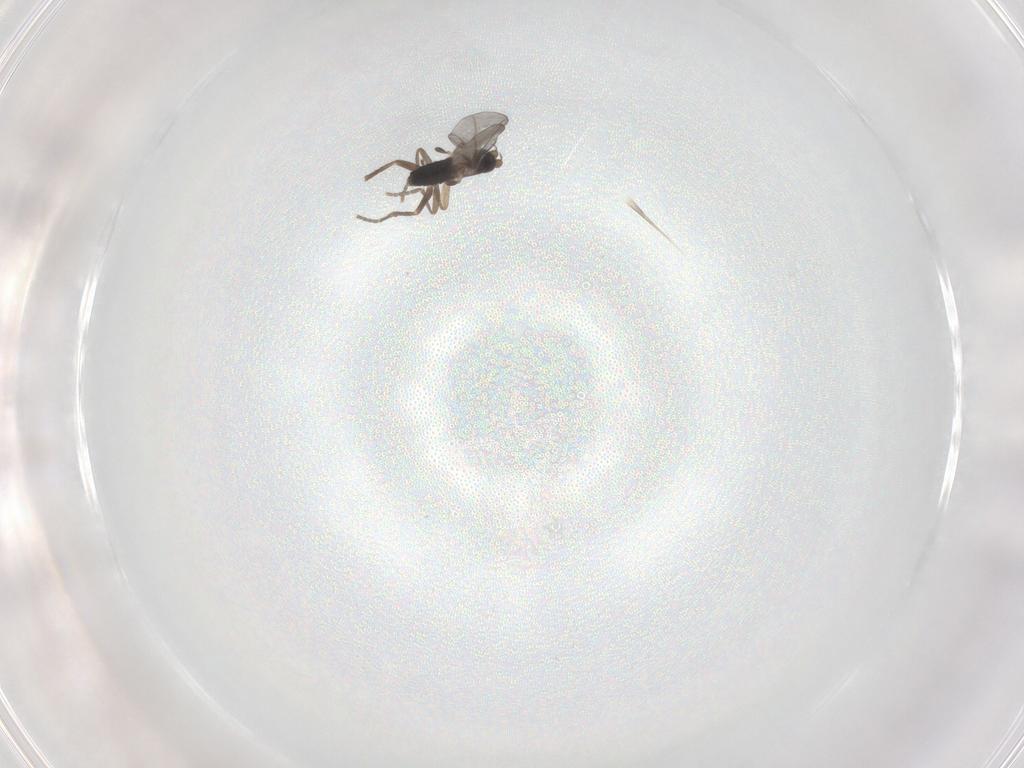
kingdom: Animalia
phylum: Arthropoda
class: Insecta
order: Diptera
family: Phoridae
